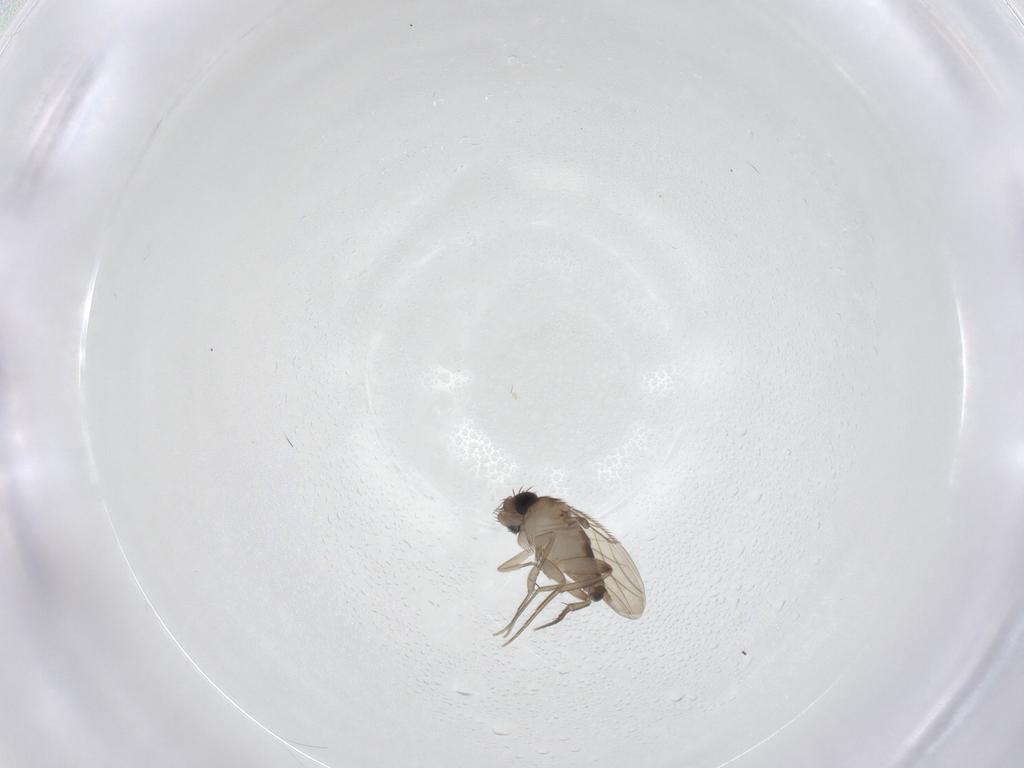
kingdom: Animalia
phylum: Arthropoda
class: Insecta
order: Diptera
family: Phoridae
